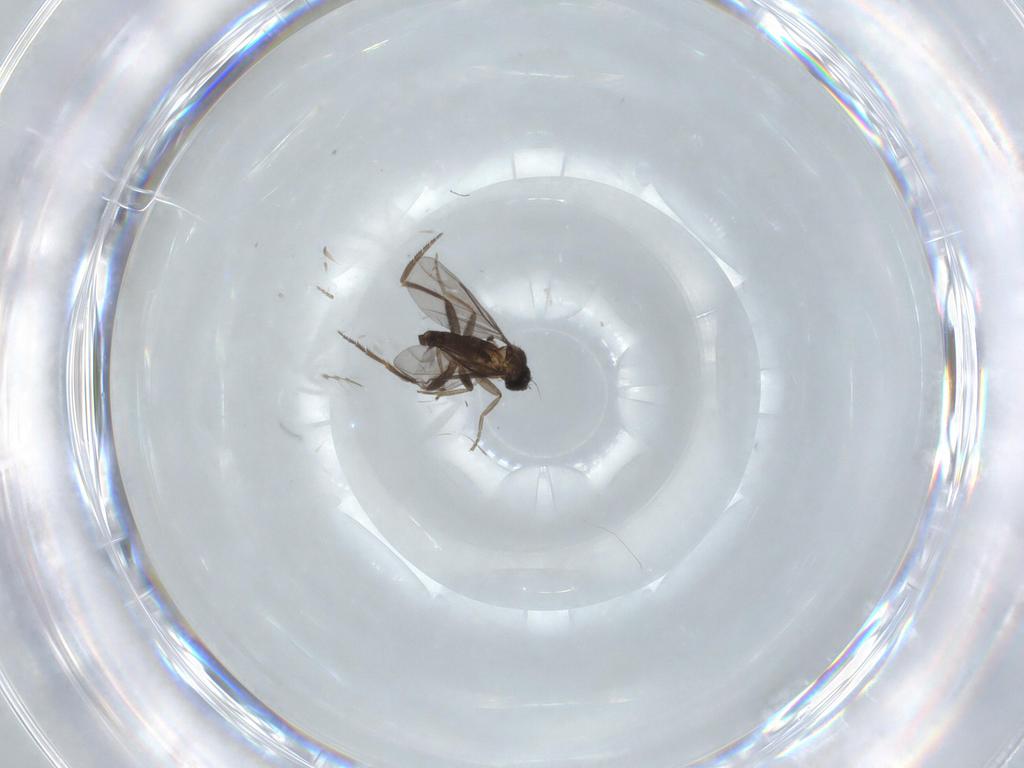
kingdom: Animalia
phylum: Arthropoda
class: Insecta
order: Diptera
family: Phoridae
